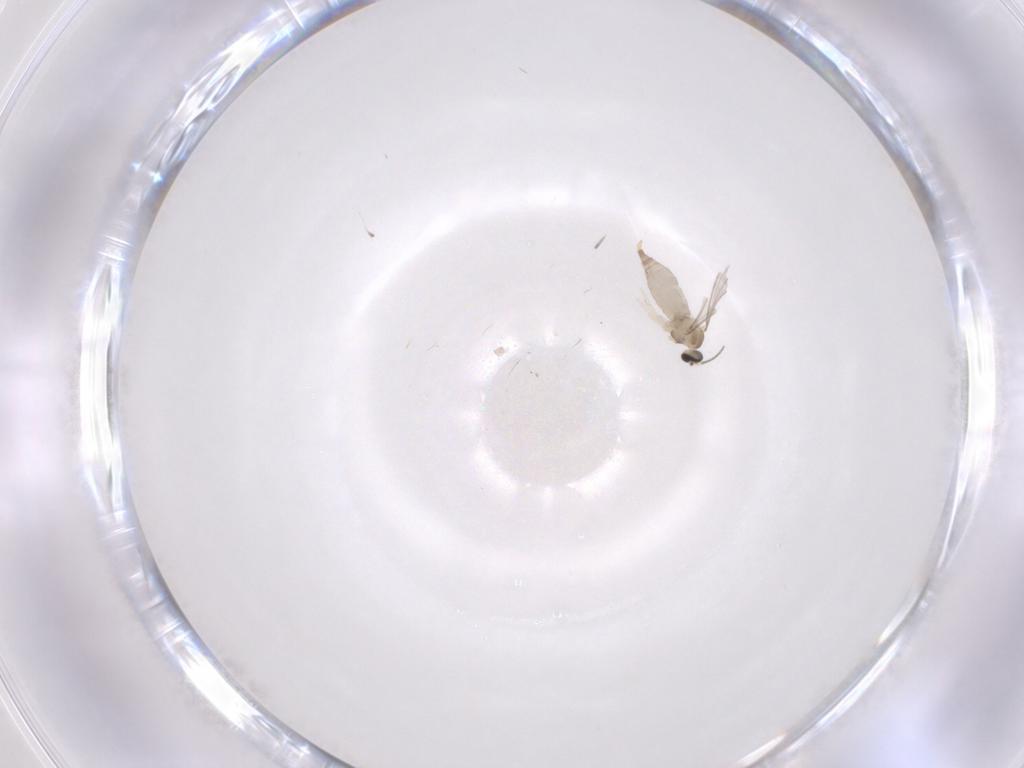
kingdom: Animalia
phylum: Arthropoda
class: Insecta
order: Diptera
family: Cecidomyiidae
